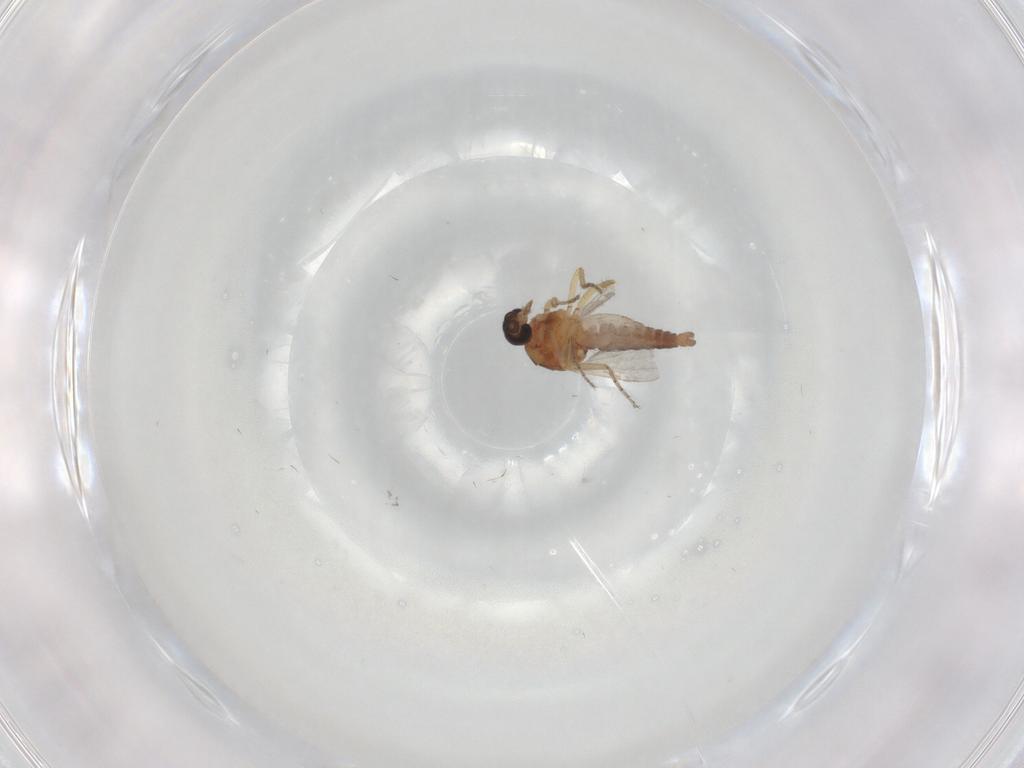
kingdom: Animalia
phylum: Arthropoda
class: Insecta
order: Diptera
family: Ceratopogonidae
